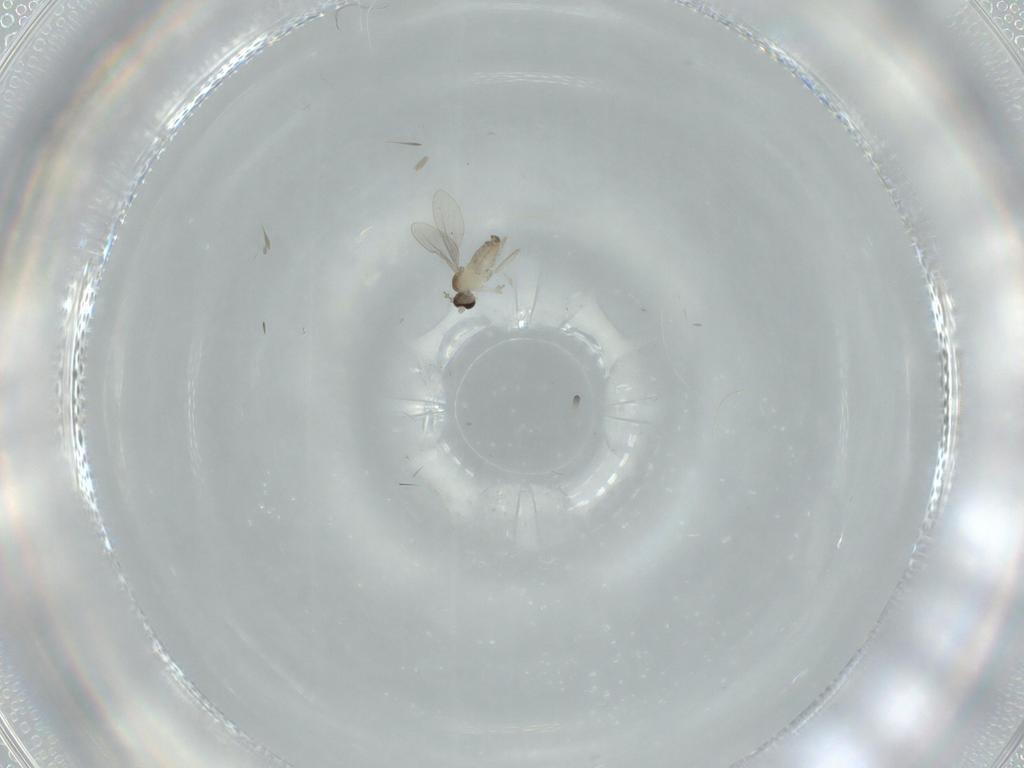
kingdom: Animalia
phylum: Arthropoda
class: Insecta
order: Diptera
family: Cecidomyiidae
